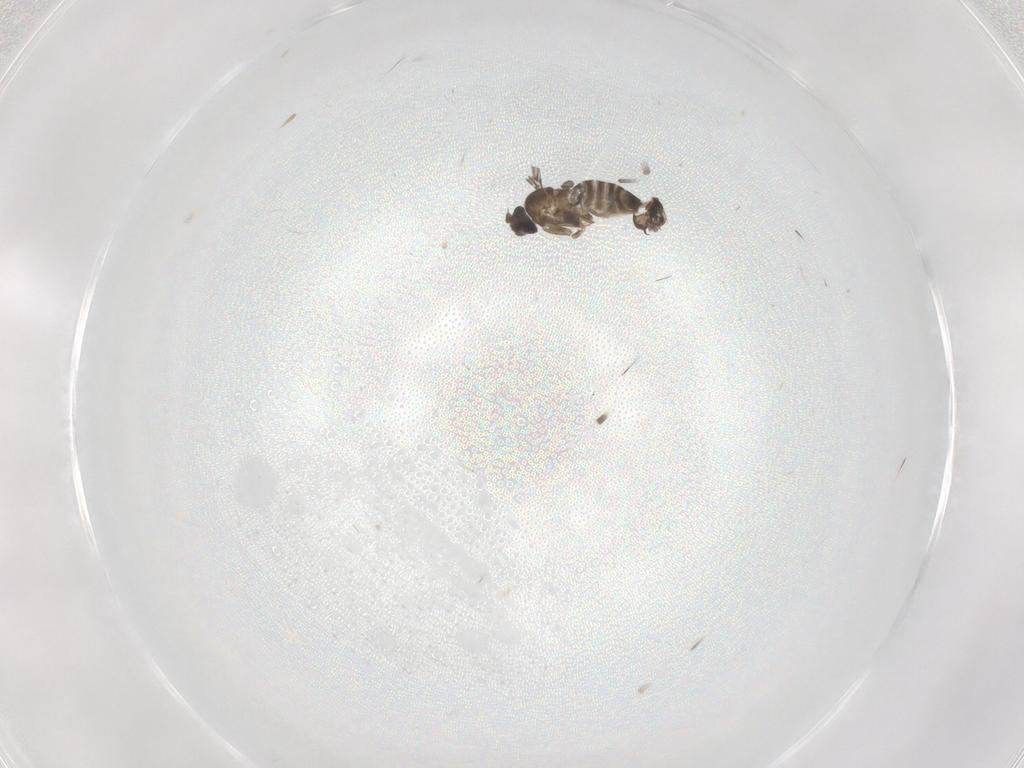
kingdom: Animalia
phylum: Arthropoda
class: Insecta
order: Diptera
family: Phoridae
